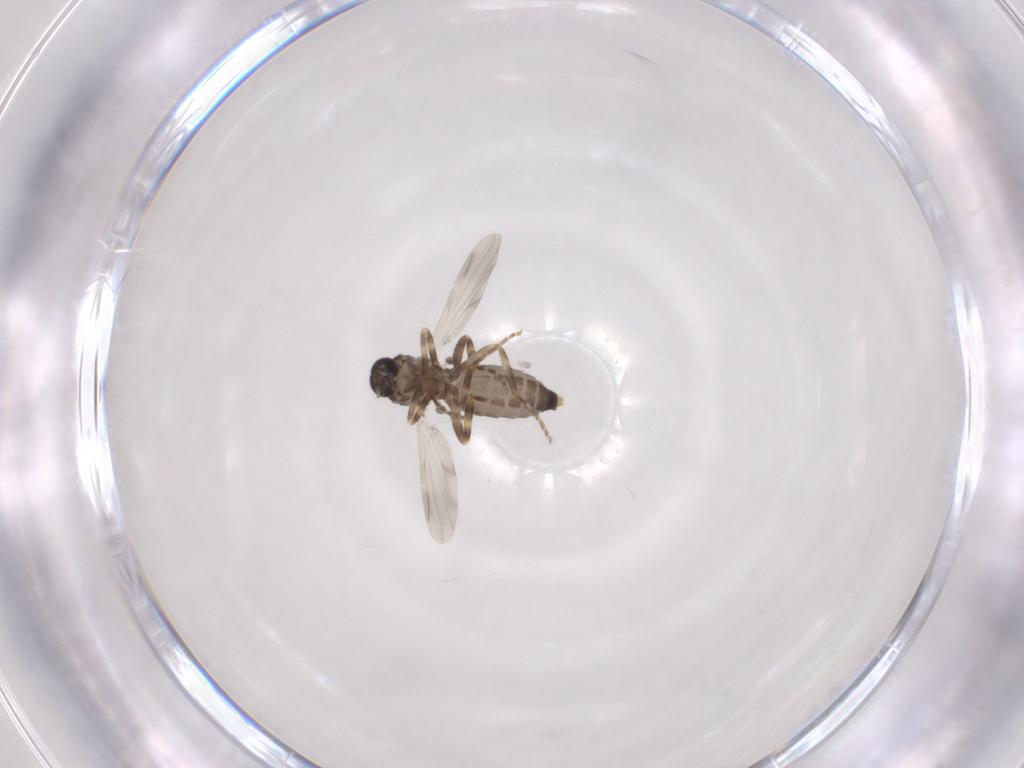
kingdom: Animalia
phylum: Arthropoda
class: Insecta
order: Diptera
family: Ceratopogonidae
